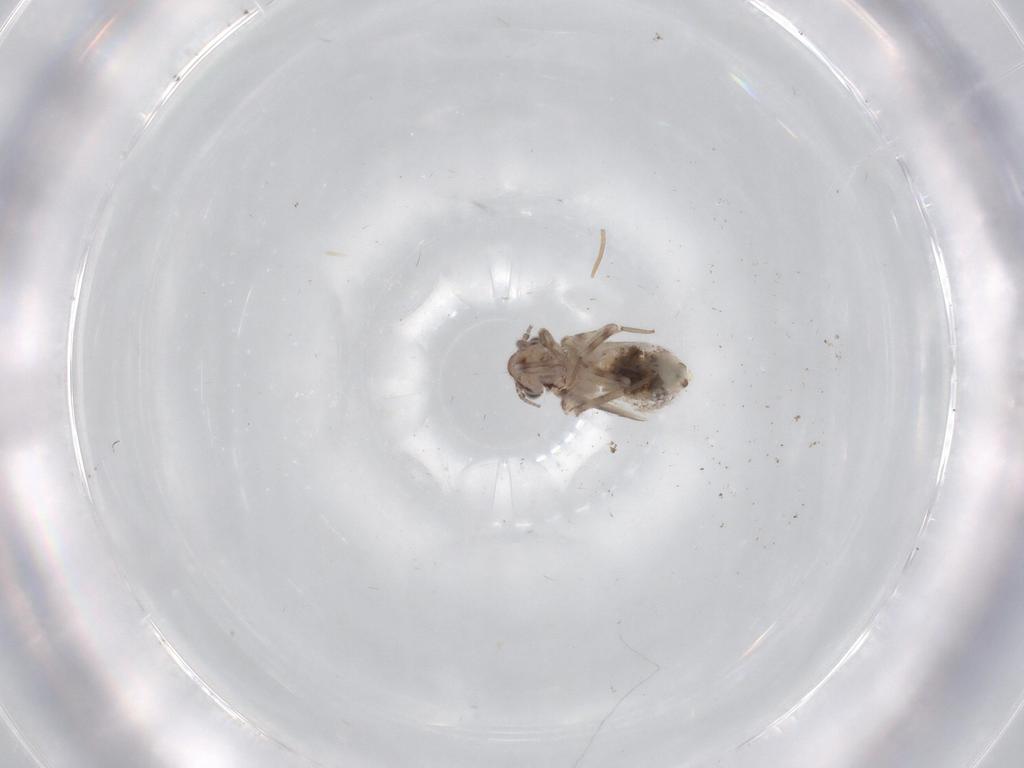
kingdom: Animalia
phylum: Arthropoda
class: Insecta
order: Psocodea
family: Lepidopsocidae
